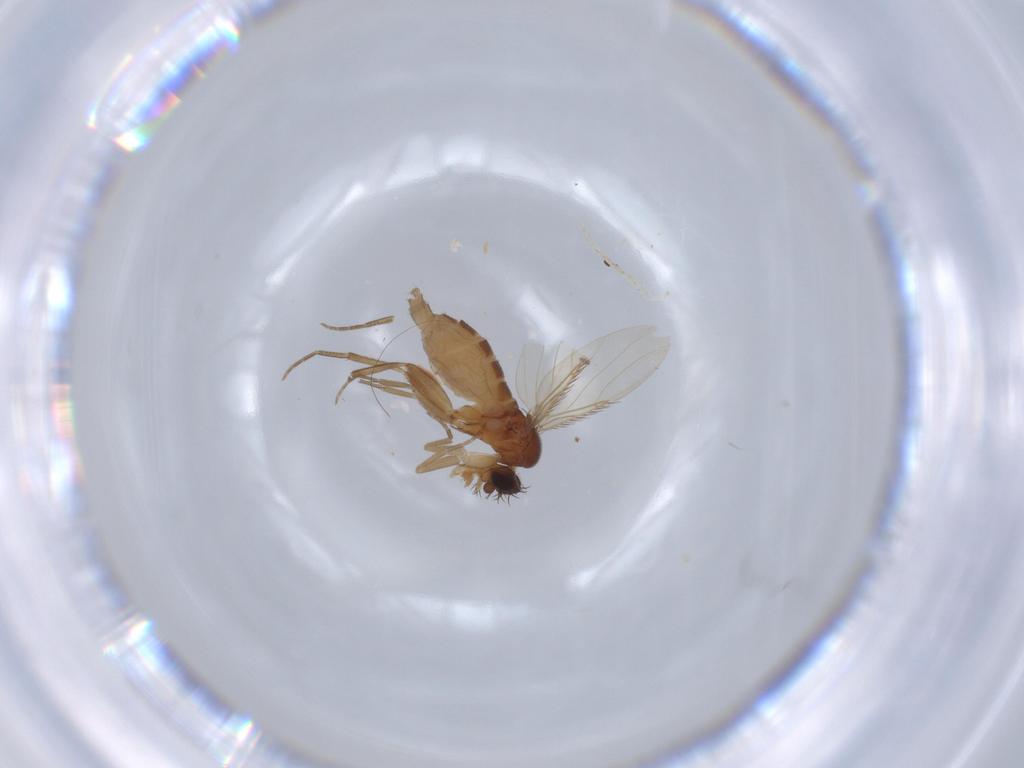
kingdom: Animalia
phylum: Arthropoda
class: Insecta
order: Diptera
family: Phoridae
